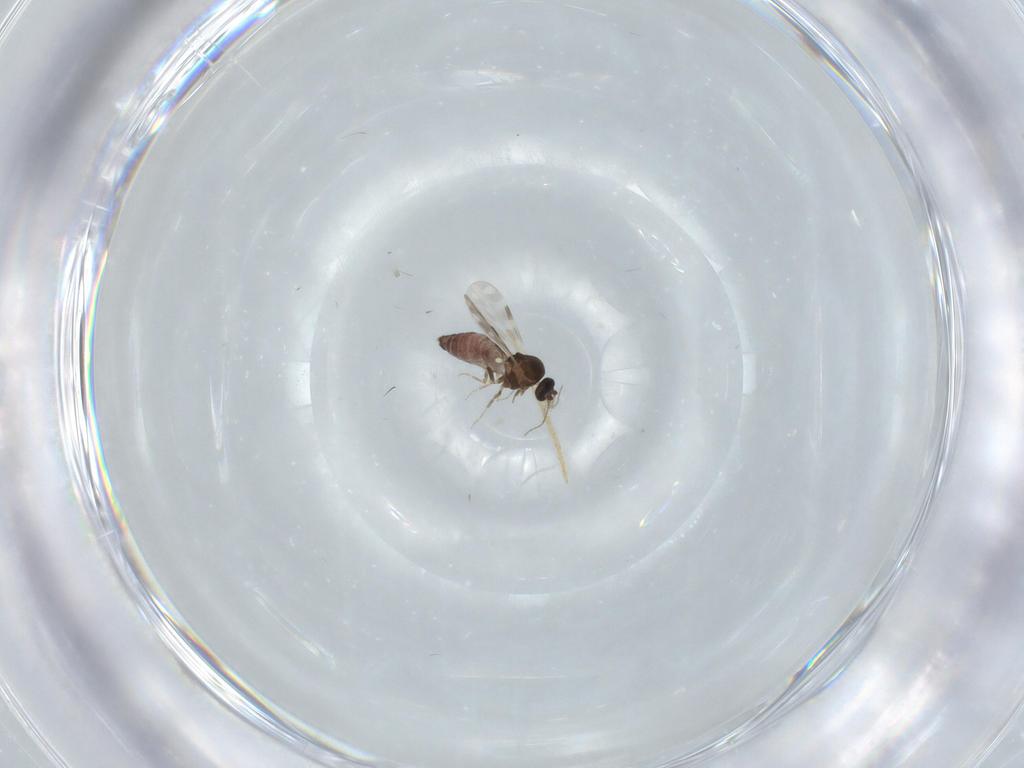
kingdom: Animalia
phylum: Arthropoda
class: Insecta
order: Diptera
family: Ceratopogonidae
